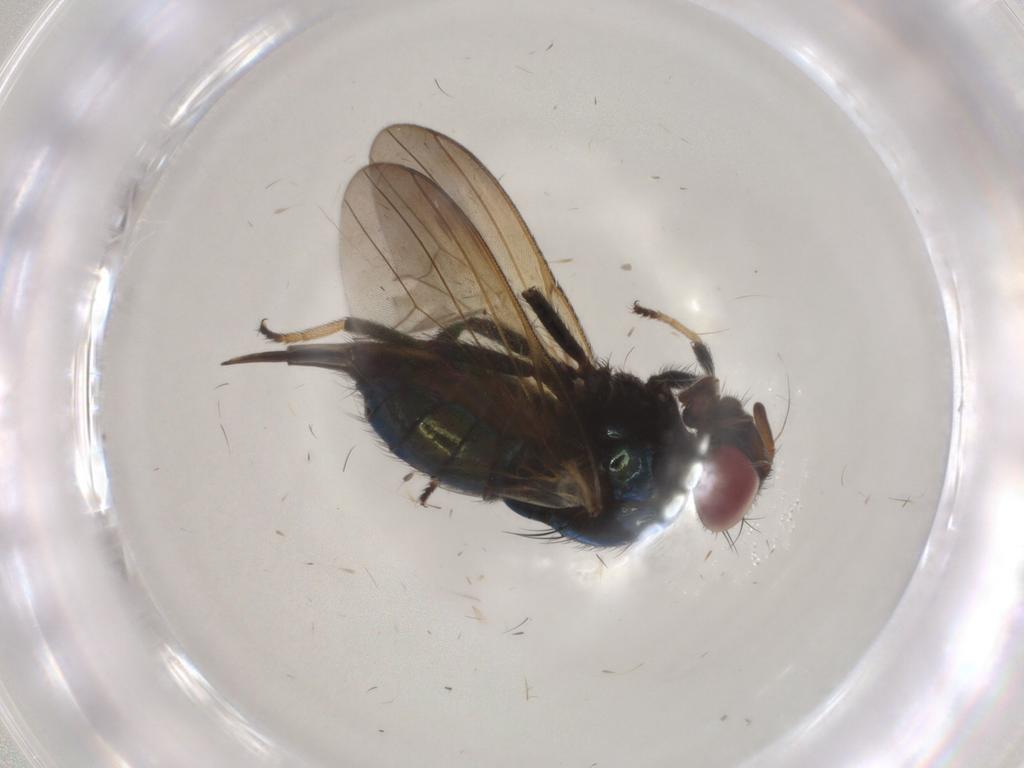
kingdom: Animalia
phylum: Arthropoda
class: Insecta
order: Diptera
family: Lonchaeidae
